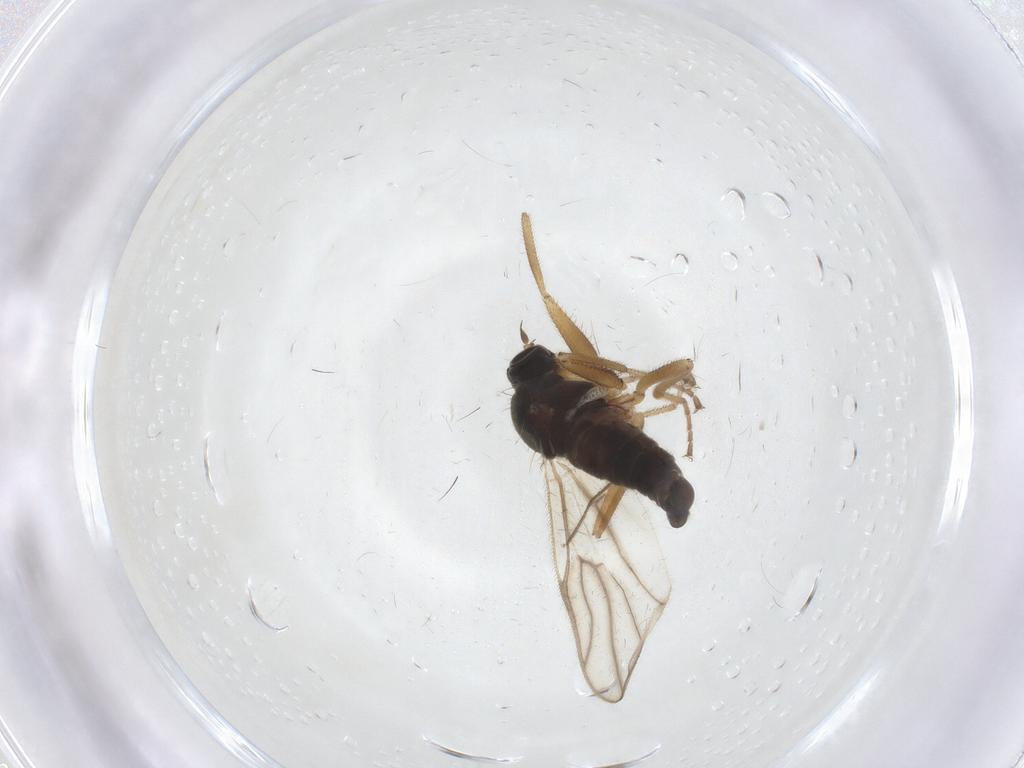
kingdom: Animalia
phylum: Arthropoda
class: Insecta
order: Diptera
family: Hybotidae
